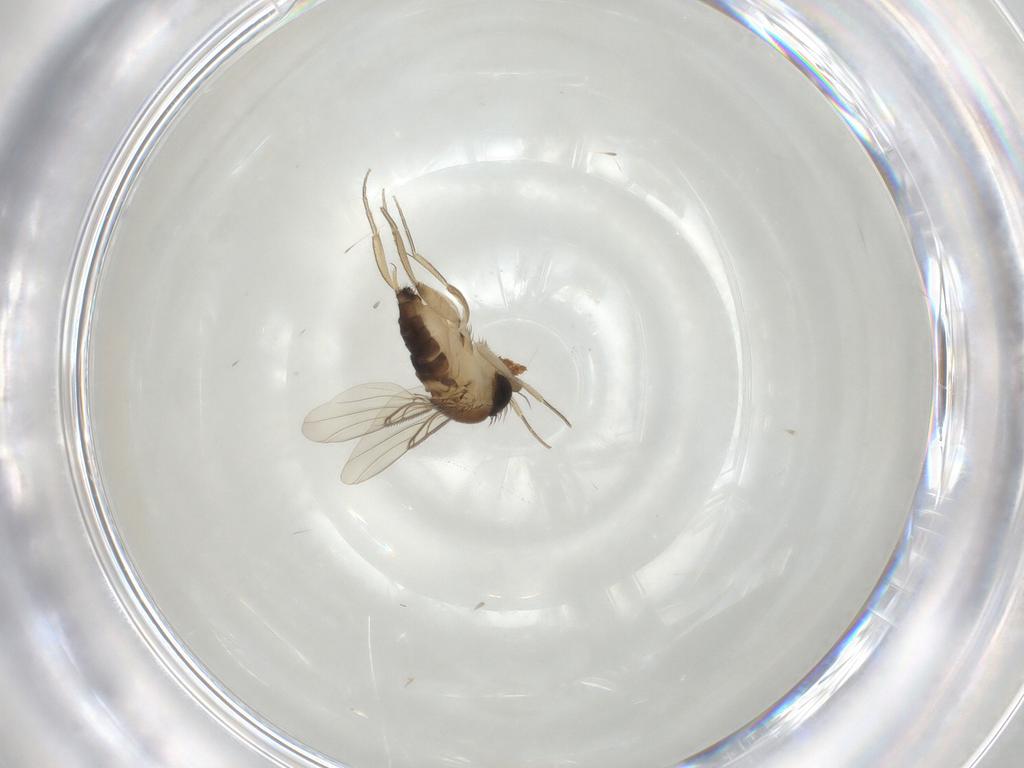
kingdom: Animalia
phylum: Arthropoda
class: Insecta
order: Diptera
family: Phoridae
